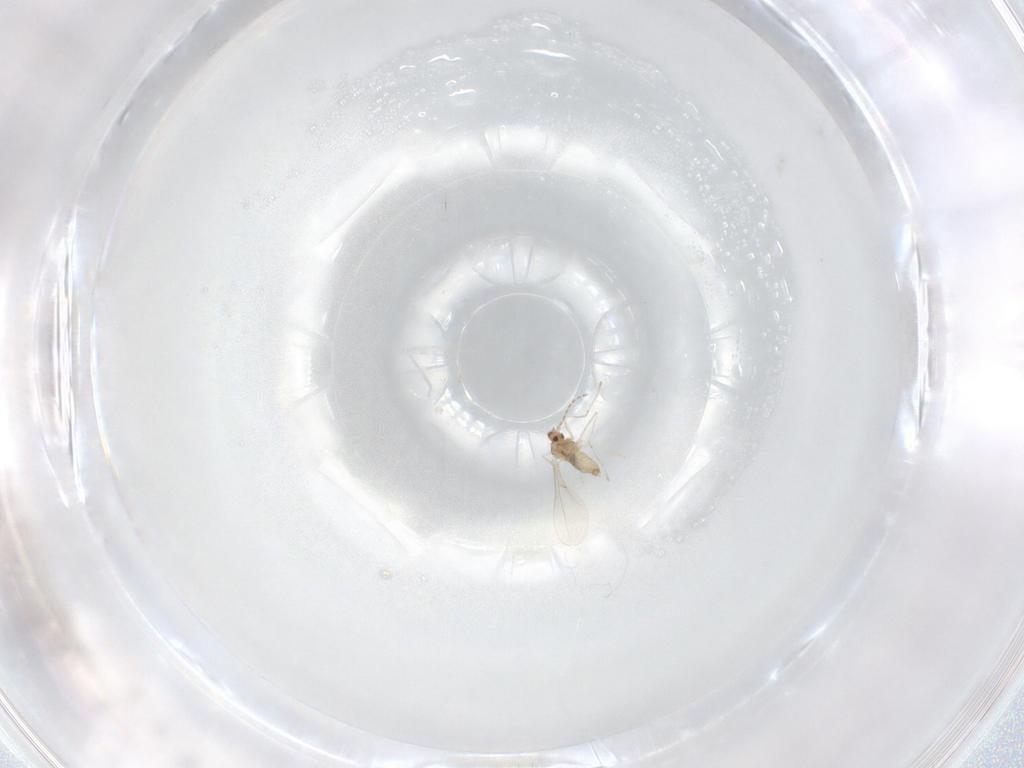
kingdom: Animalia
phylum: Arthropoda
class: Insecta
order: Diptera
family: Cecidomyiidae
